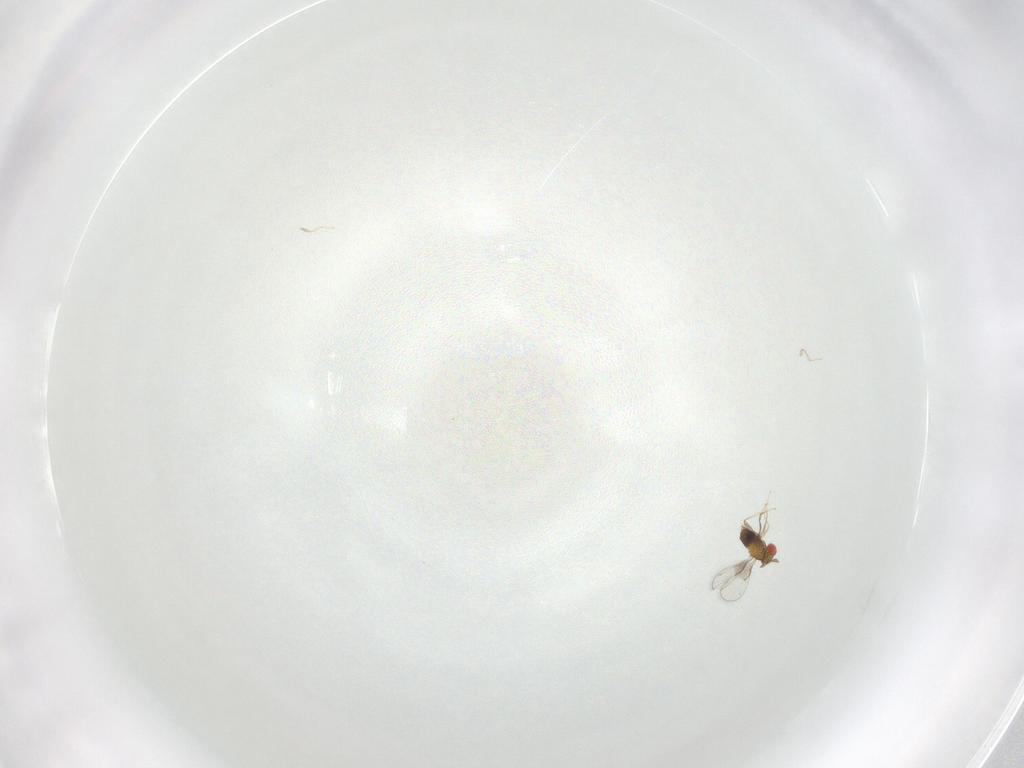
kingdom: Animalia
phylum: Arthropoda
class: Insecta
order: Hymenoptera
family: Trichogrammatidae
